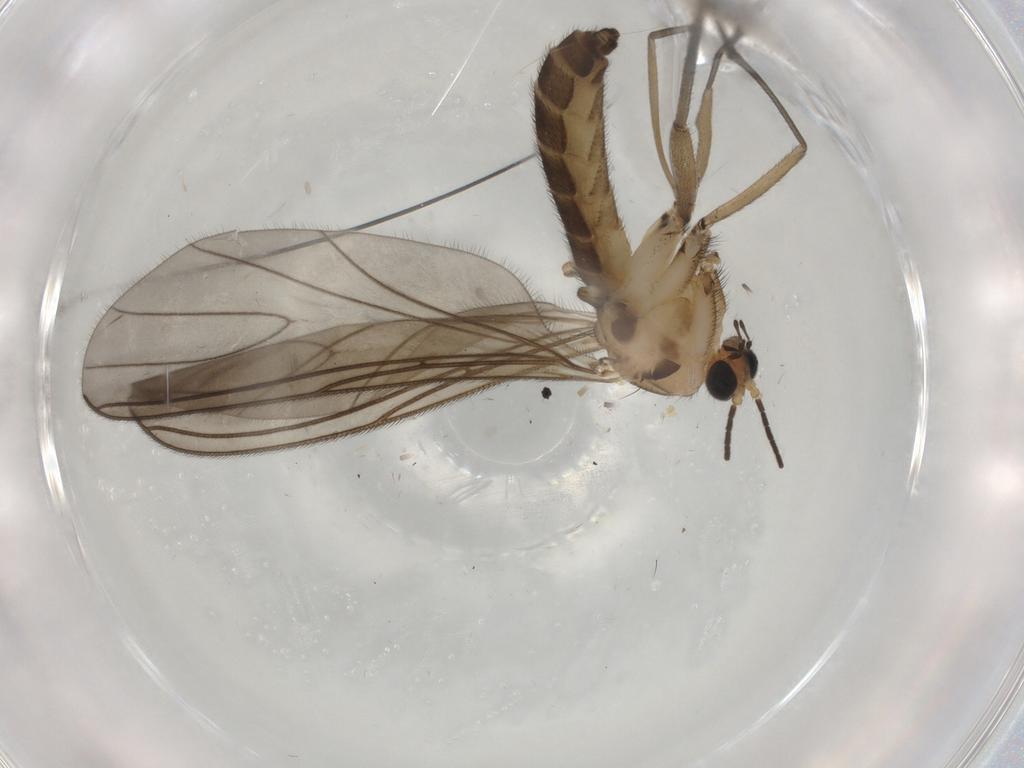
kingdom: Animalia
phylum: Arthropoda
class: Insecta
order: Diptera
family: Sciaridae
